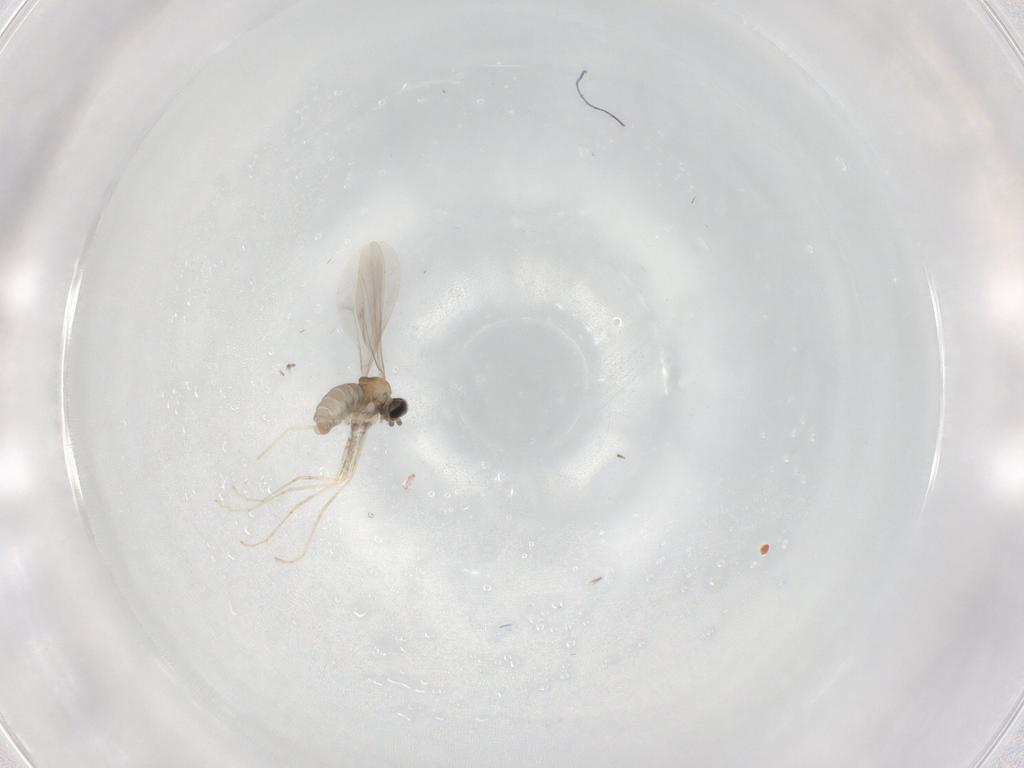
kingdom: Animalia
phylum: Arthropoda
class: Insecta
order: Diptera
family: Cecidomyiidae
